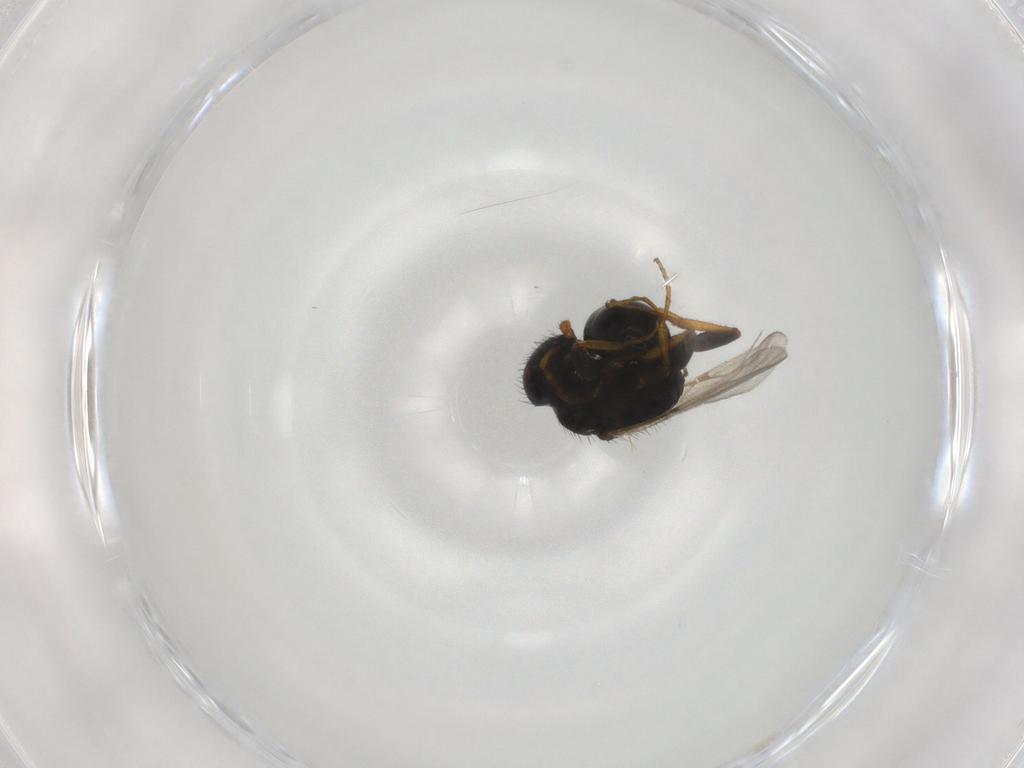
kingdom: Animalia
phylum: Arthropoda
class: Insecta
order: Hymenoptera
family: Bethylidae
